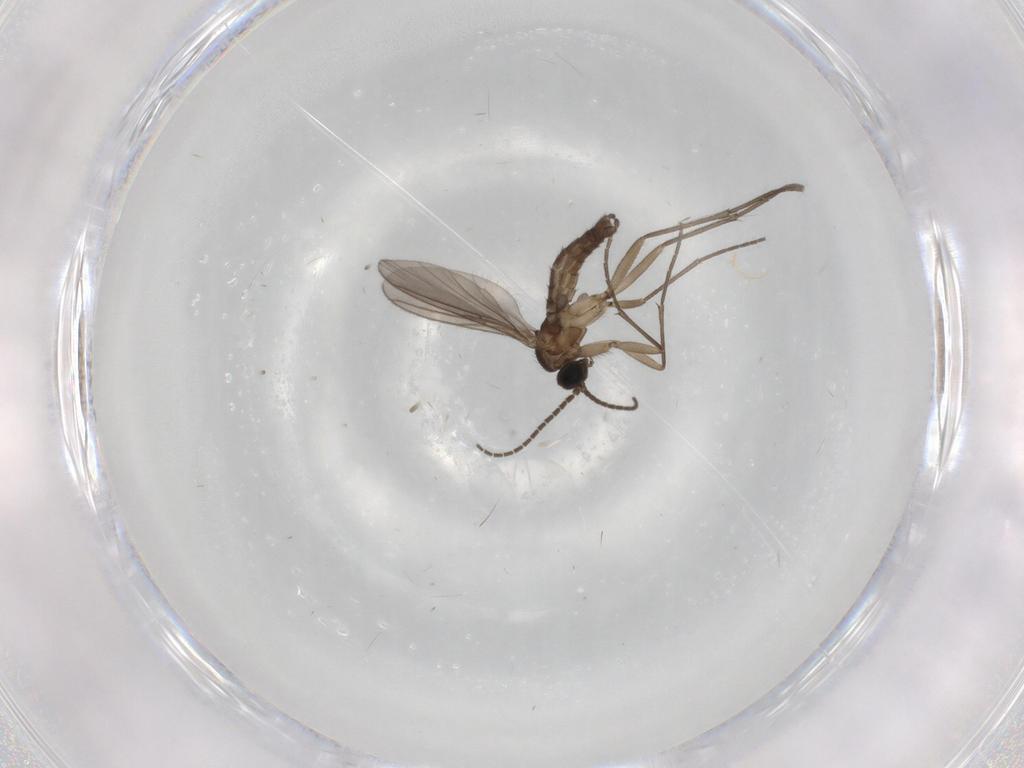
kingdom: Animalia
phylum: Arthropoda
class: Insecta
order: Diptera
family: Sciaridae
